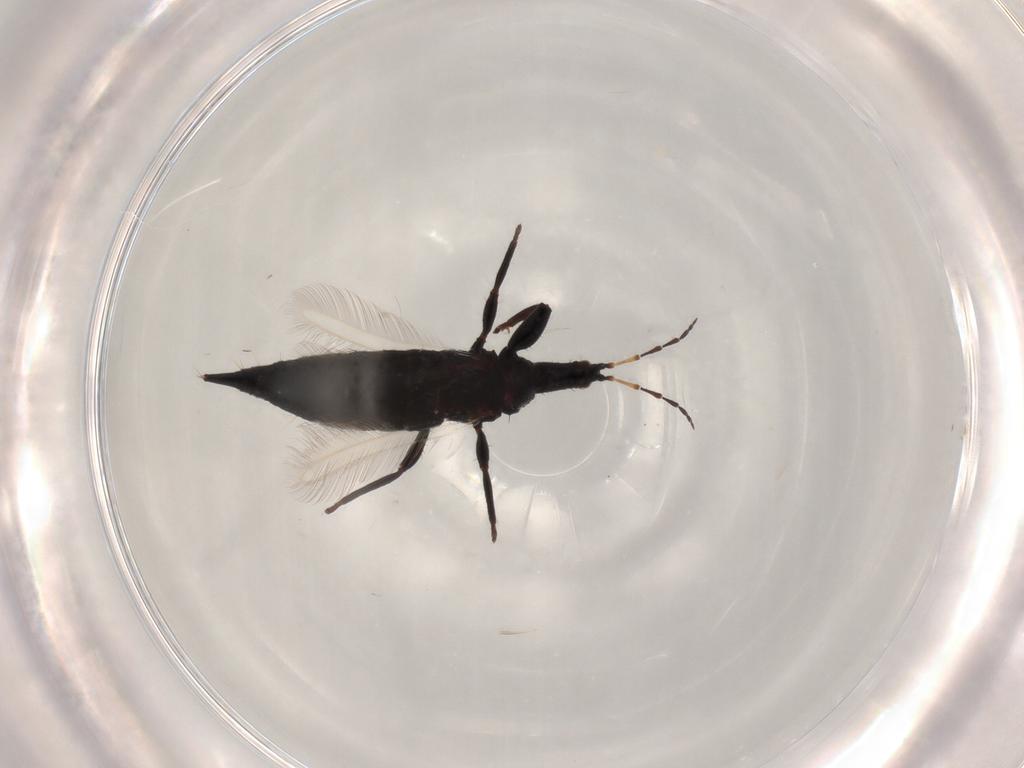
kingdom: Animalia
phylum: Arthropoda
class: Insecta
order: Thysanoptera
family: Phlaeothripidae
